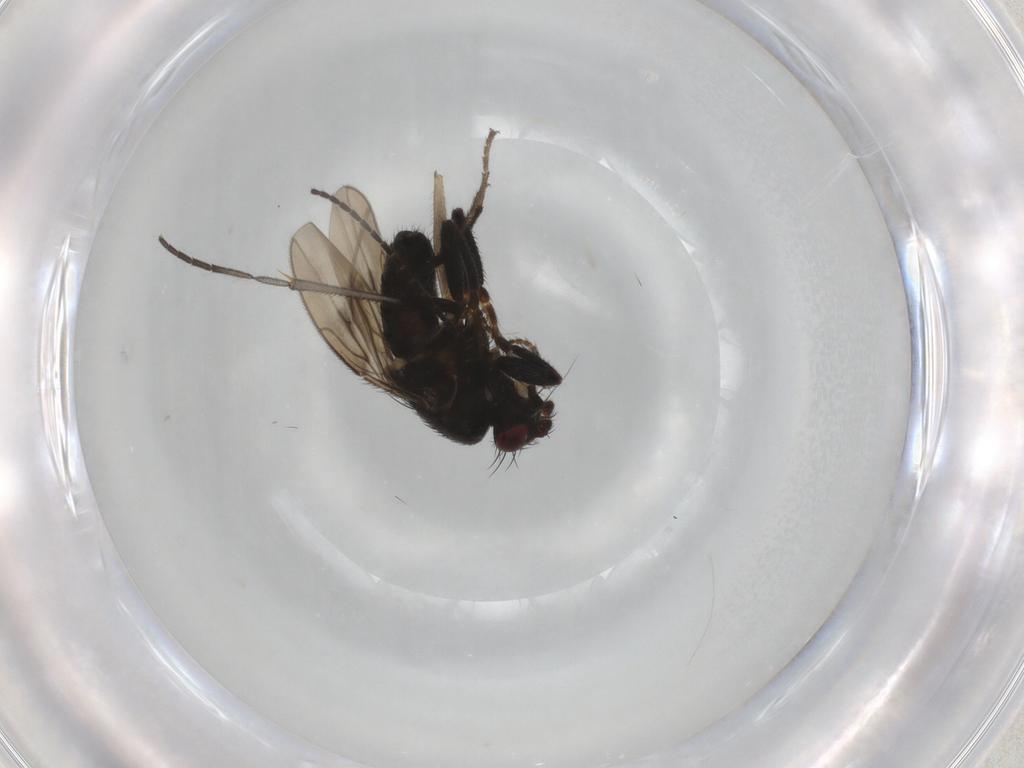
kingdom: Animalia
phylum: Arthropoda
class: Insecta
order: Diptera
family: Sphaeroceridae
